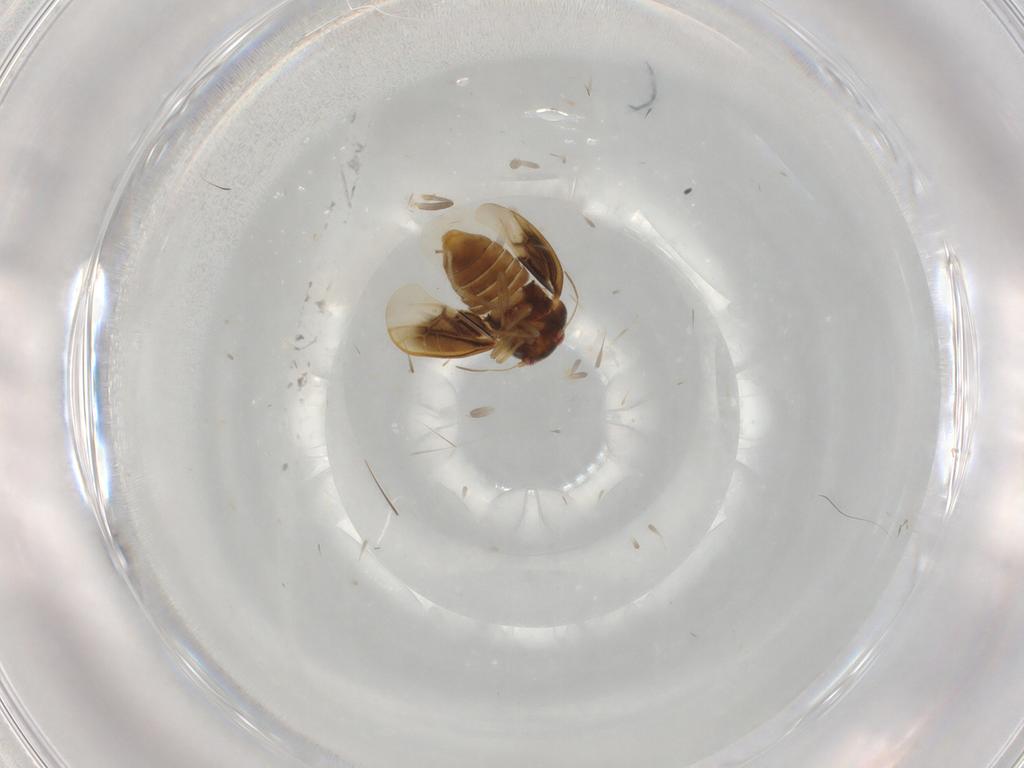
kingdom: Animalia
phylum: Arthropoda
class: Insecta
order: Hemiptera
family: Schizopteridae
